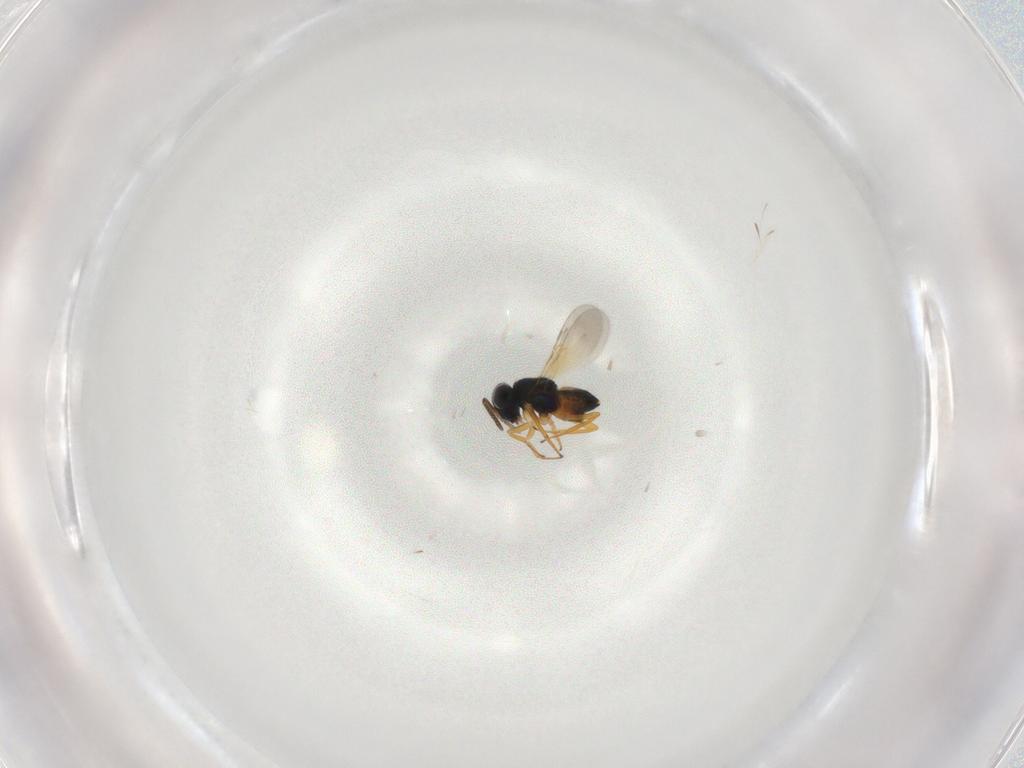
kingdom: Animalia
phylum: Arthropoda
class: Insecta
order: Hymenoptera
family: Encyrtidae
